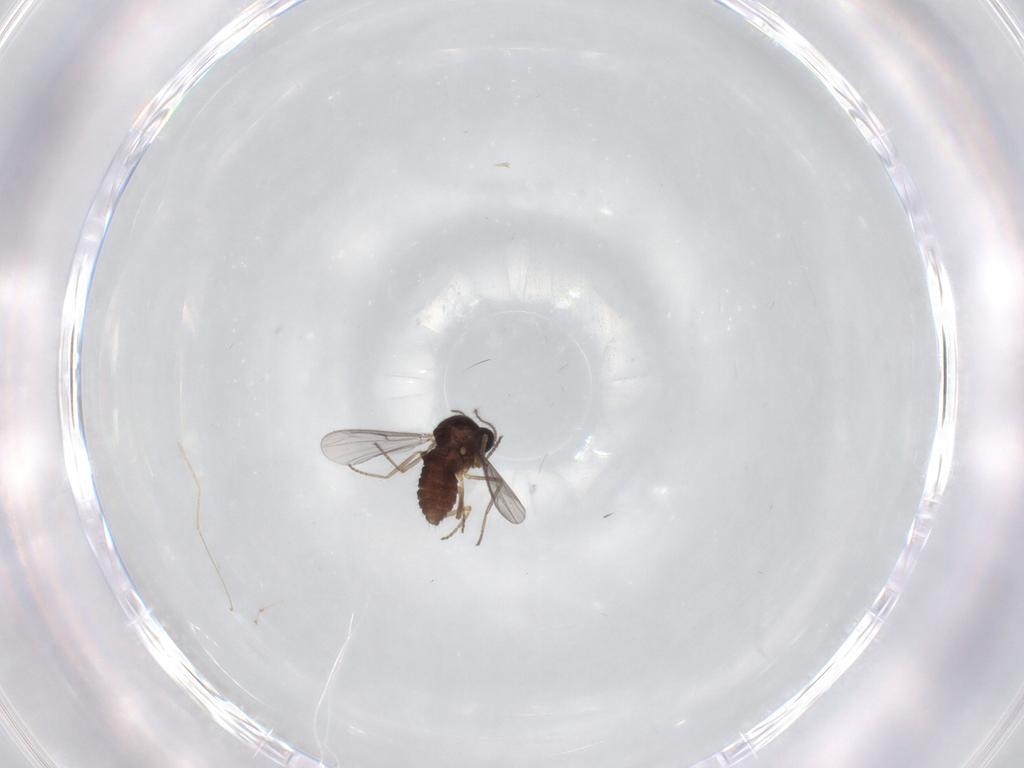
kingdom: Animalia
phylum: Arthropoda
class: Insecta
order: Diptera
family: Ceratopogonidae
